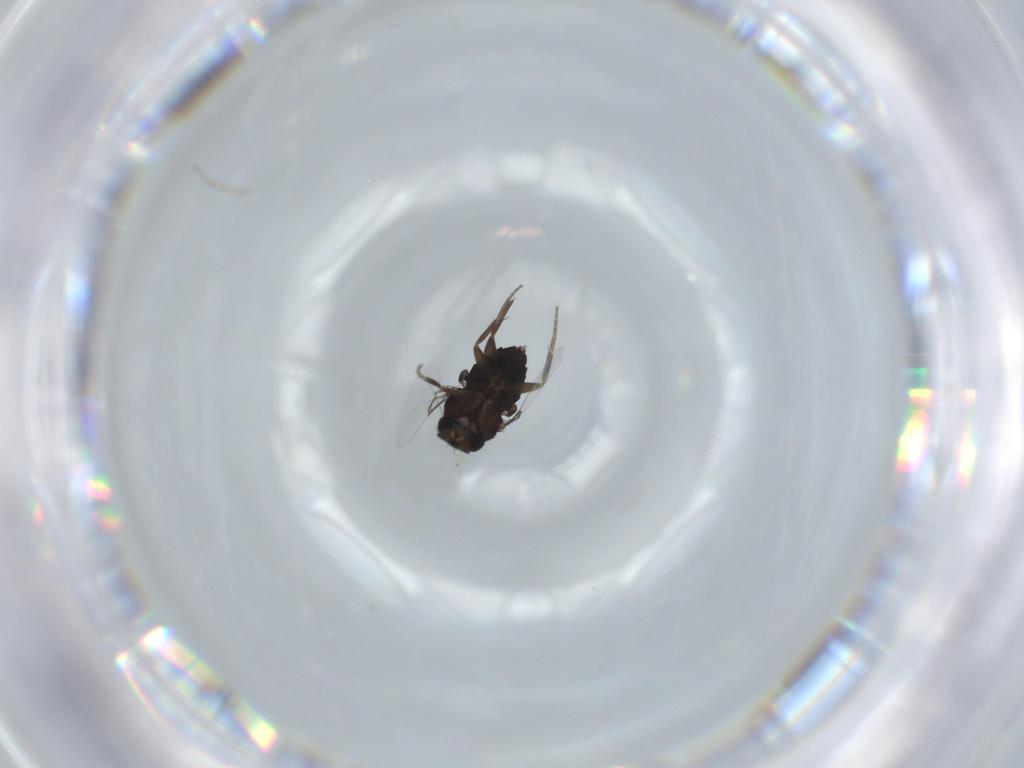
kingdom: Animalia
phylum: Arthropoda
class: Insecta
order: Diptera
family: Phoridae
